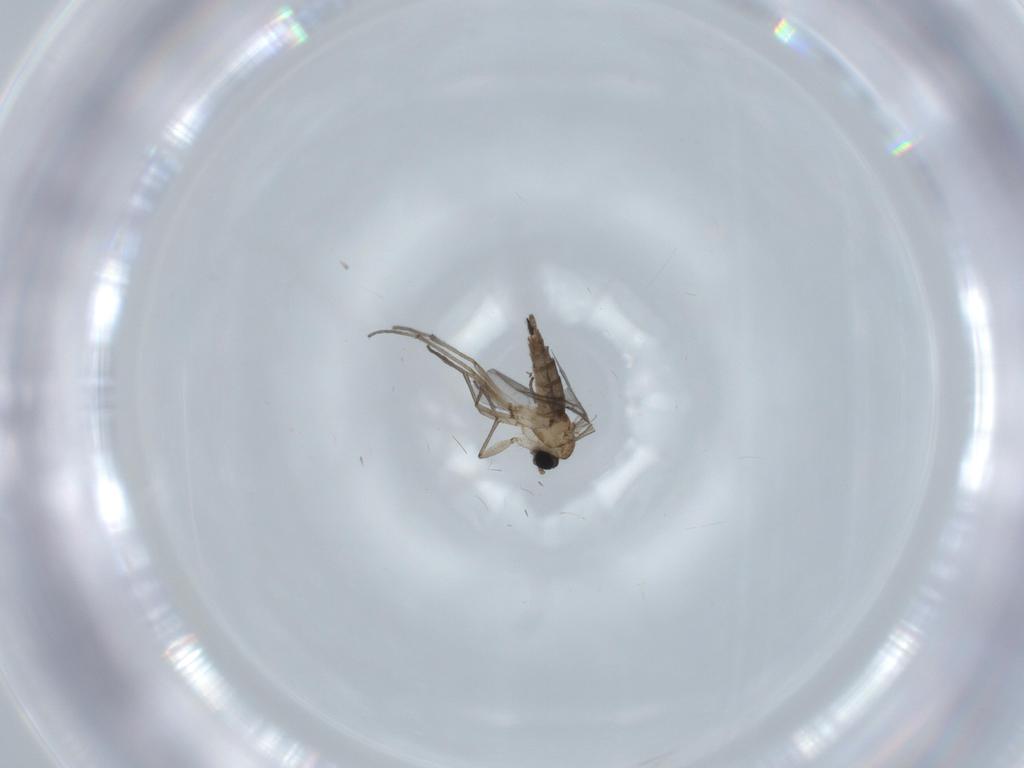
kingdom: Animalia
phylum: Arthropoda
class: Insecta
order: Diptera
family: Sciaridae
